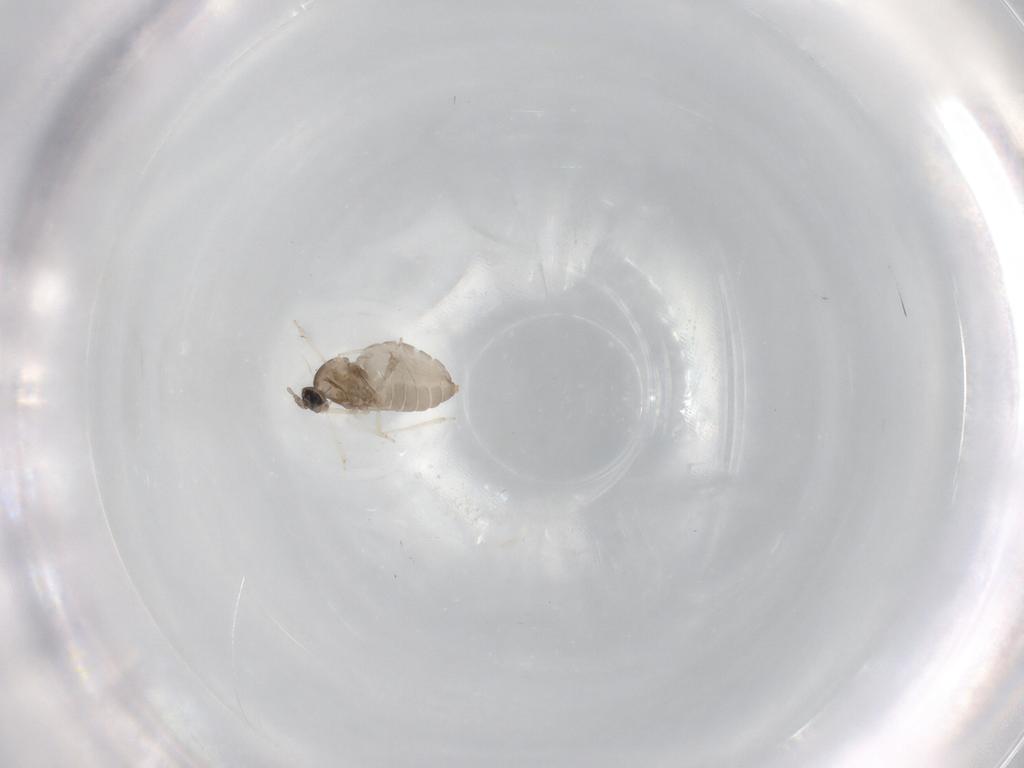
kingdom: Animalia
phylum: Arthropoda
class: Insecta
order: Diptera
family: Cecidomyiidae
